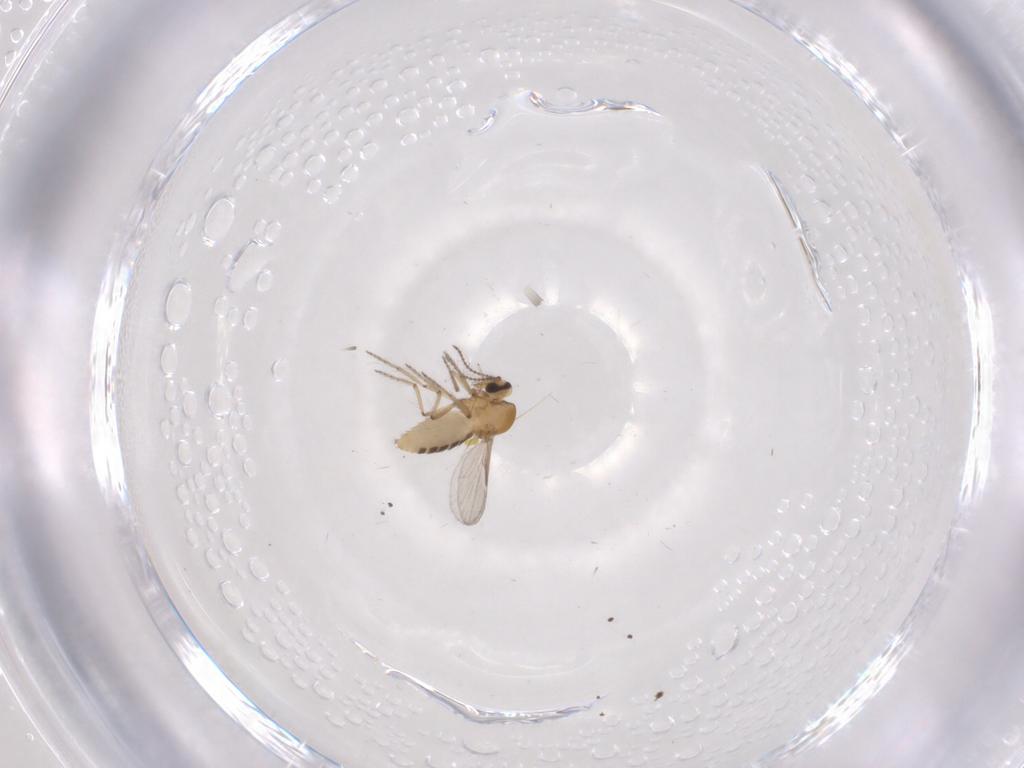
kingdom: Animalia
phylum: Arthropoda
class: Insecta
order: Diptera
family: Ceratopogonidae
